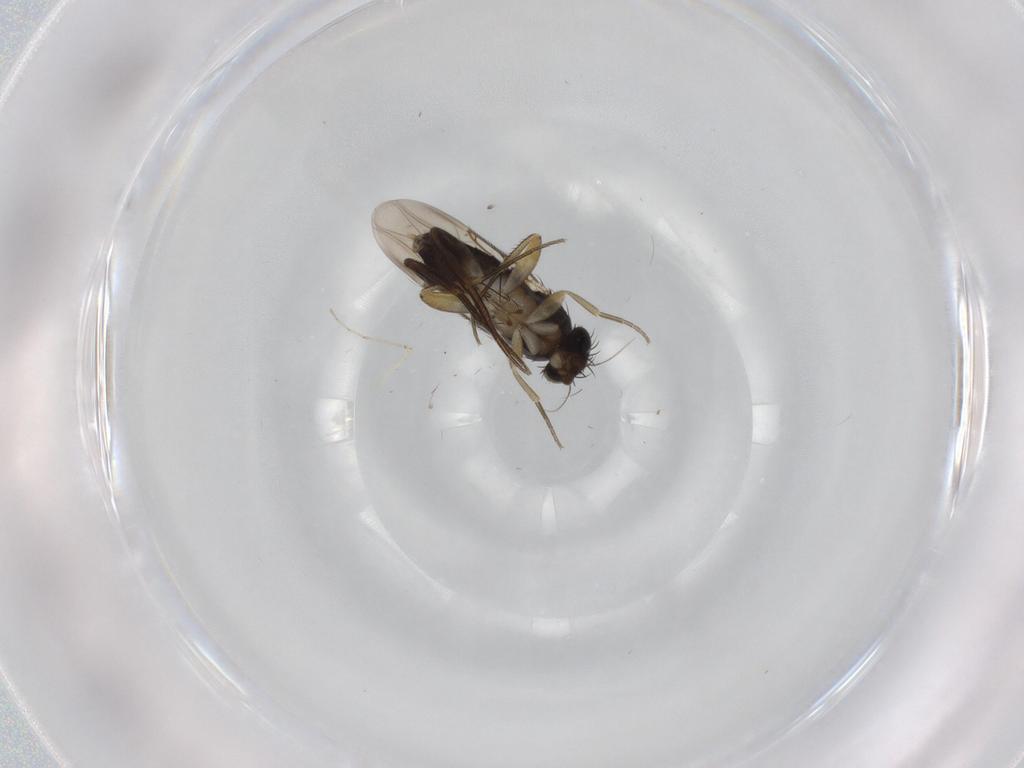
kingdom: Animalia
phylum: Arthropoda
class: Insecta
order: Diptera
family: Phoridae
